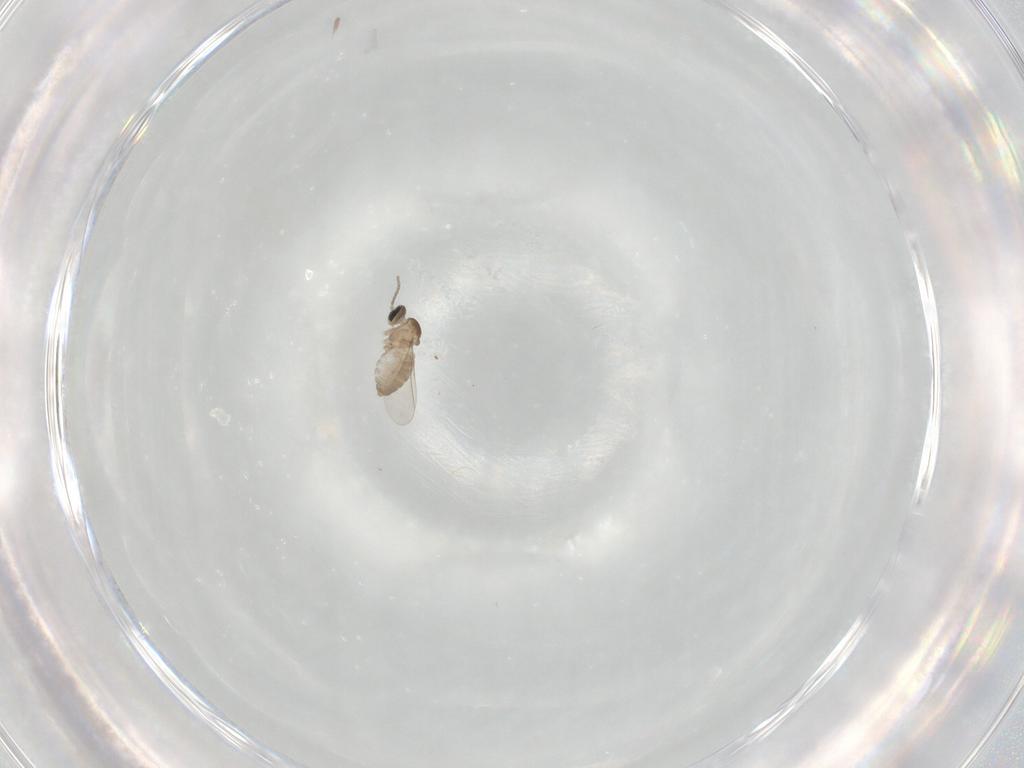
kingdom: Animalia
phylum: Arthropoda
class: Insecta
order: Diptera
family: Cecidomyiidae
